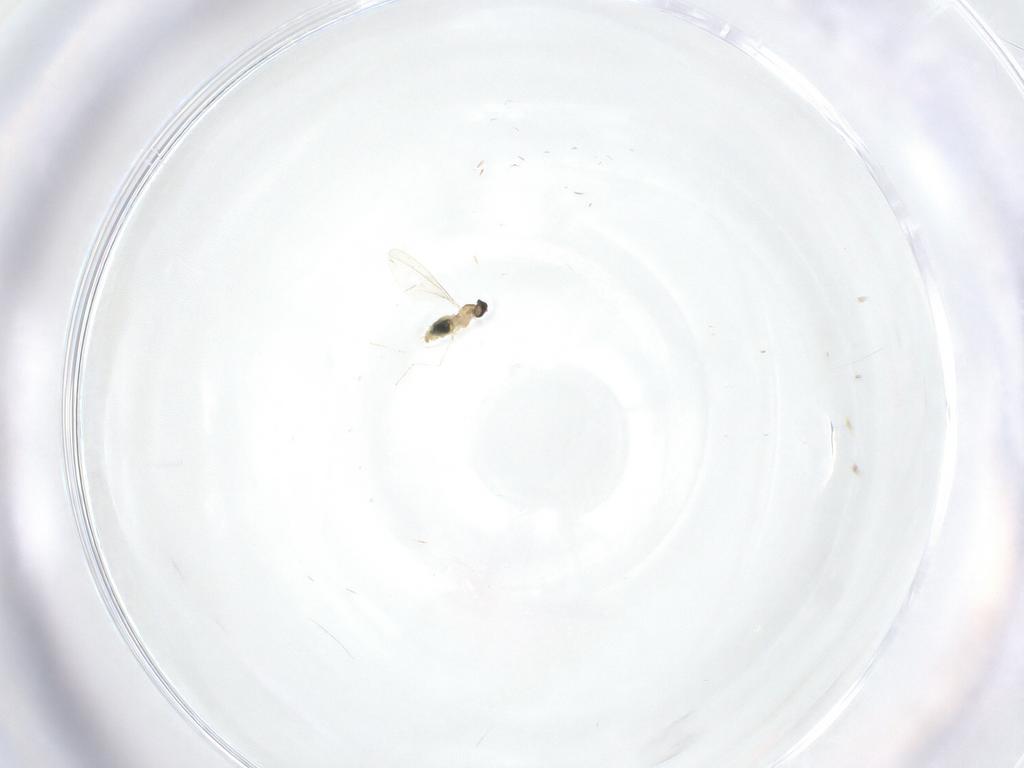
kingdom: Animalia
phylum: Arthropoda
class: Insecta
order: Diptera
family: Cecidomyiidae
